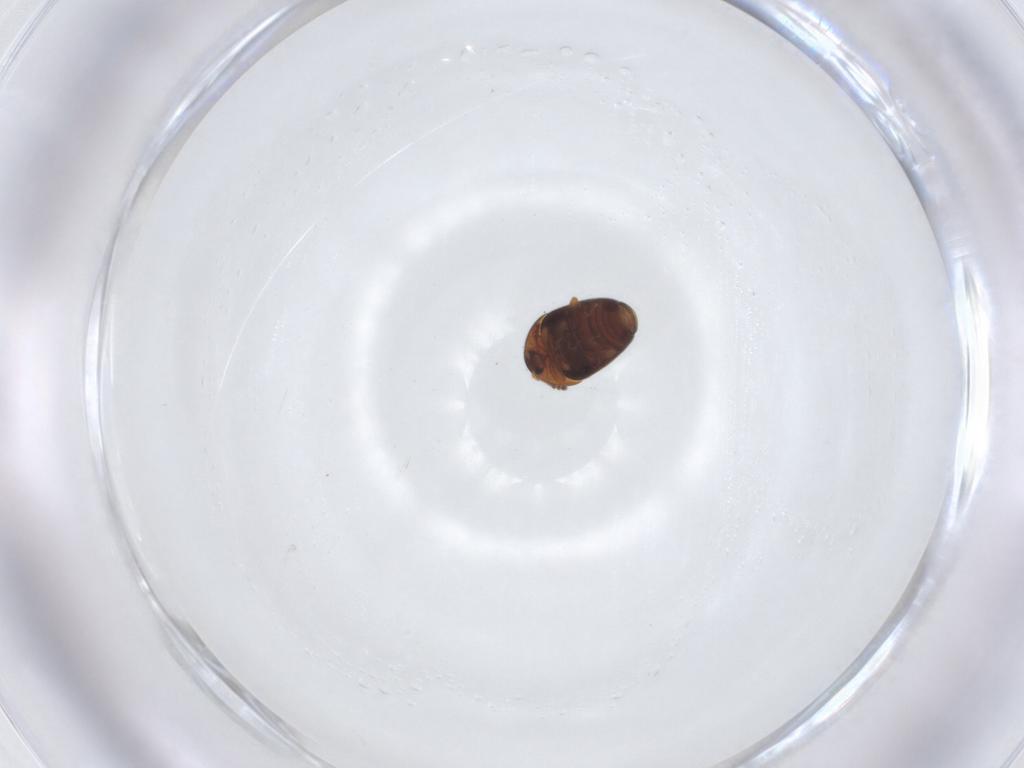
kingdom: Animalia
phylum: Arthropoda
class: Insecta
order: Coleoptera
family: Corylophidae
